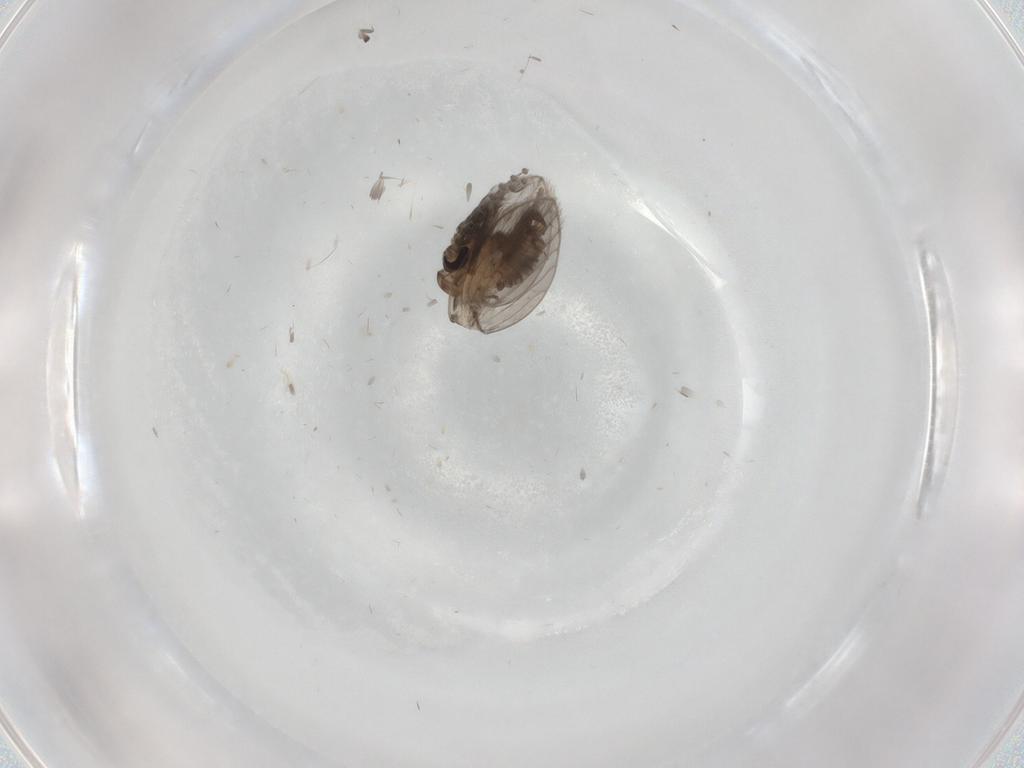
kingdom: Animalia
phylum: Arthropoda
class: Insecta
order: Diptera
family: Psychodidae
